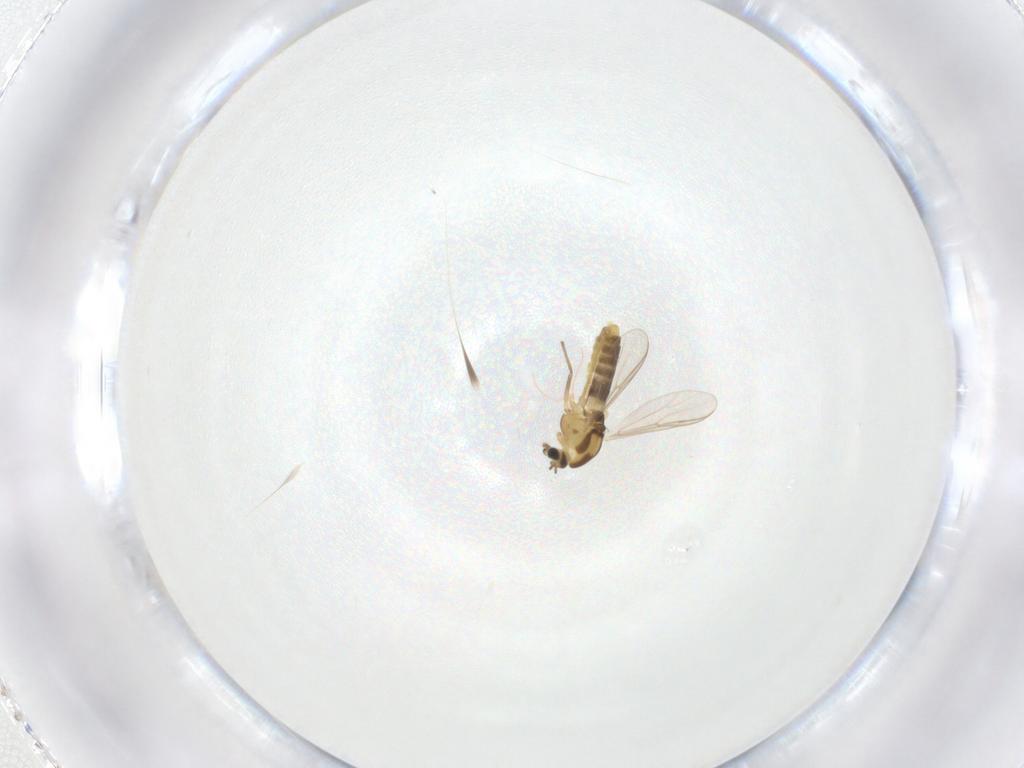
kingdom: Animalia
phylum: Arthropoda
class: Insecta
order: Diptera
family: Chironomidae
